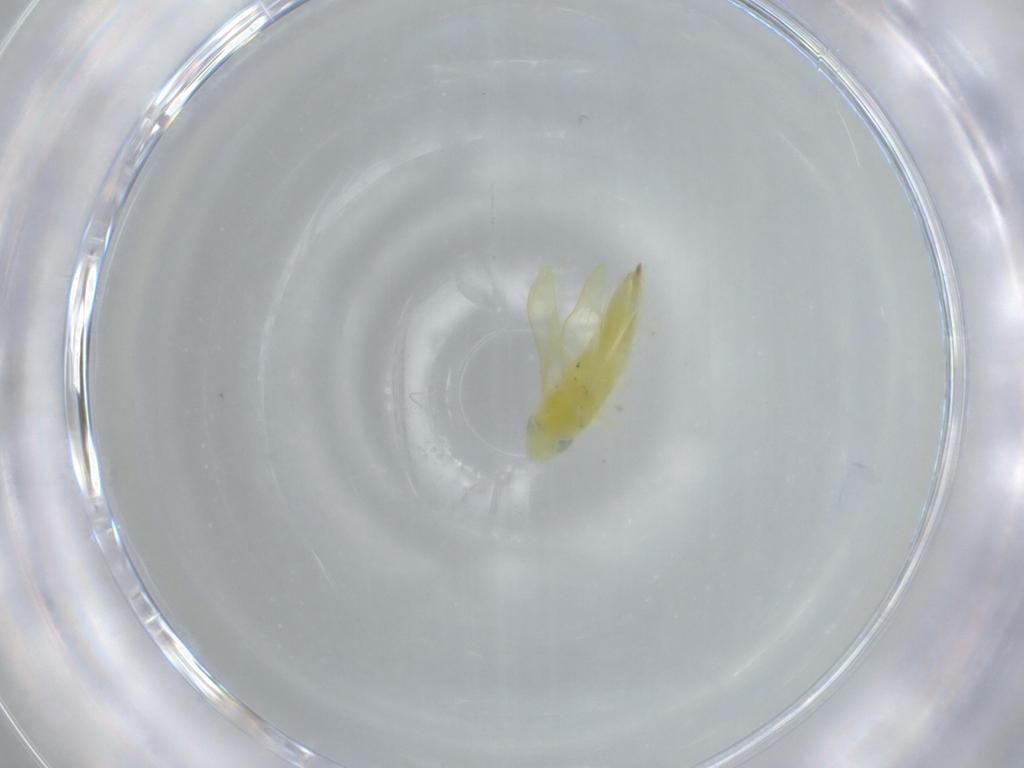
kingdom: Animalia
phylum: Arthropoda
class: Insecta
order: Hemiptera
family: Cicadellidae
